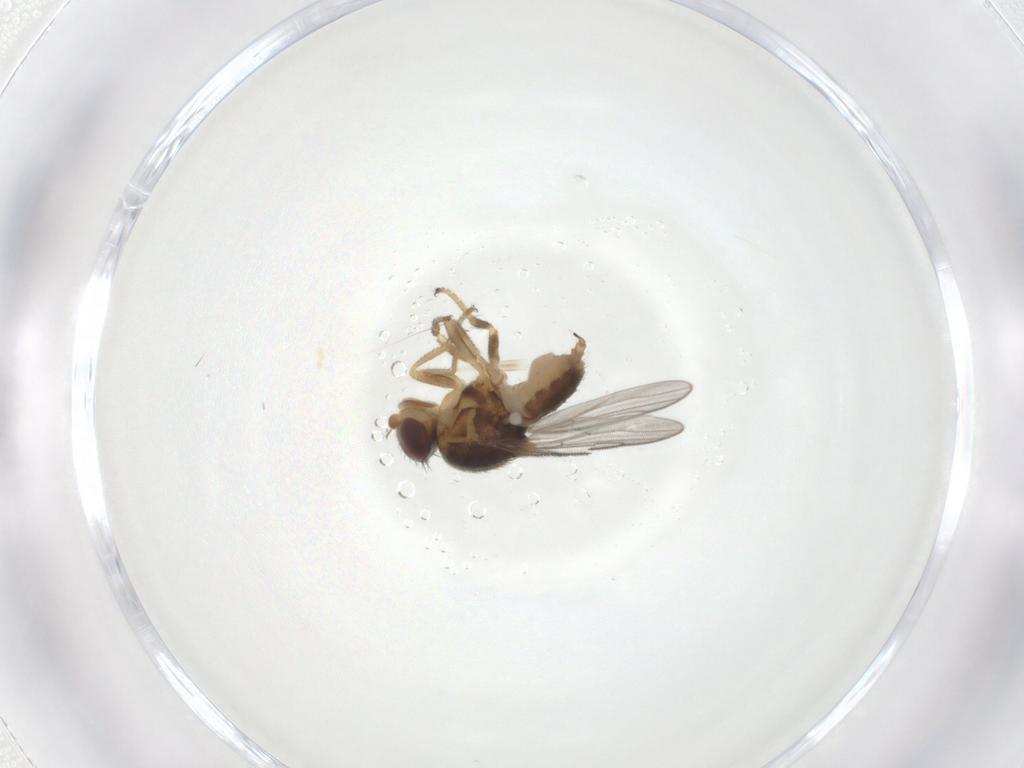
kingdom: Animalia
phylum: Arthropoda
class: Insecta
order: Diptera
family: Chloropidae
